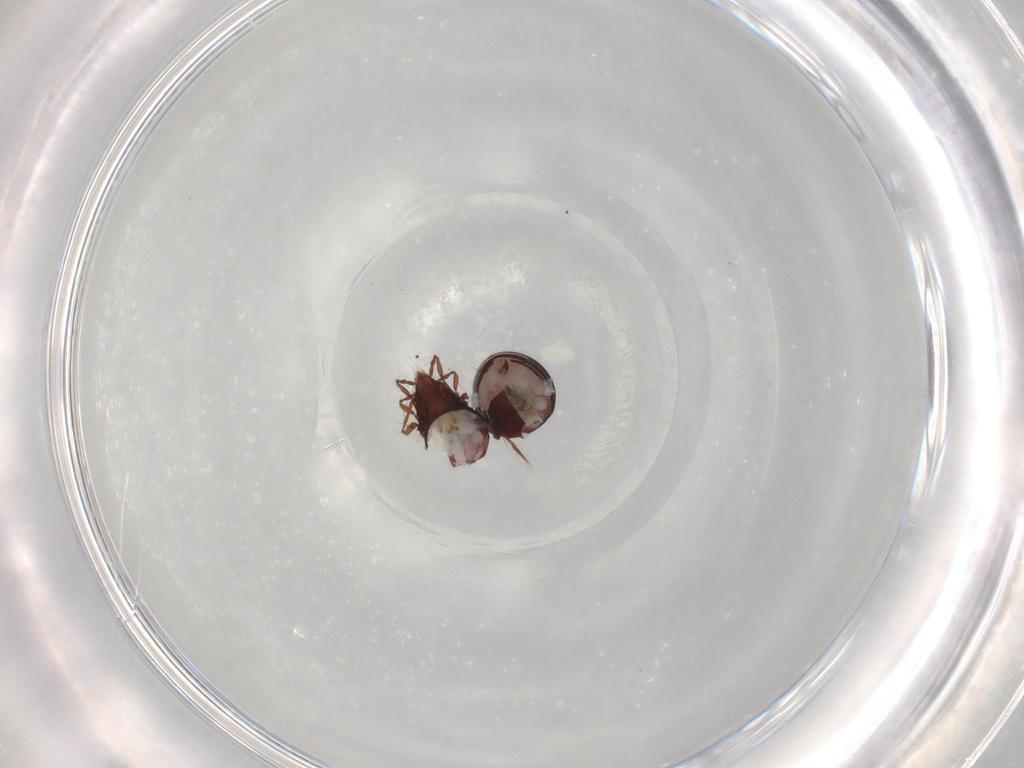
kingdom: Animalia
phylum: Arthropoda
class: Arachnida
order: Sarcoptiformes
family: Ceratoppiidae
